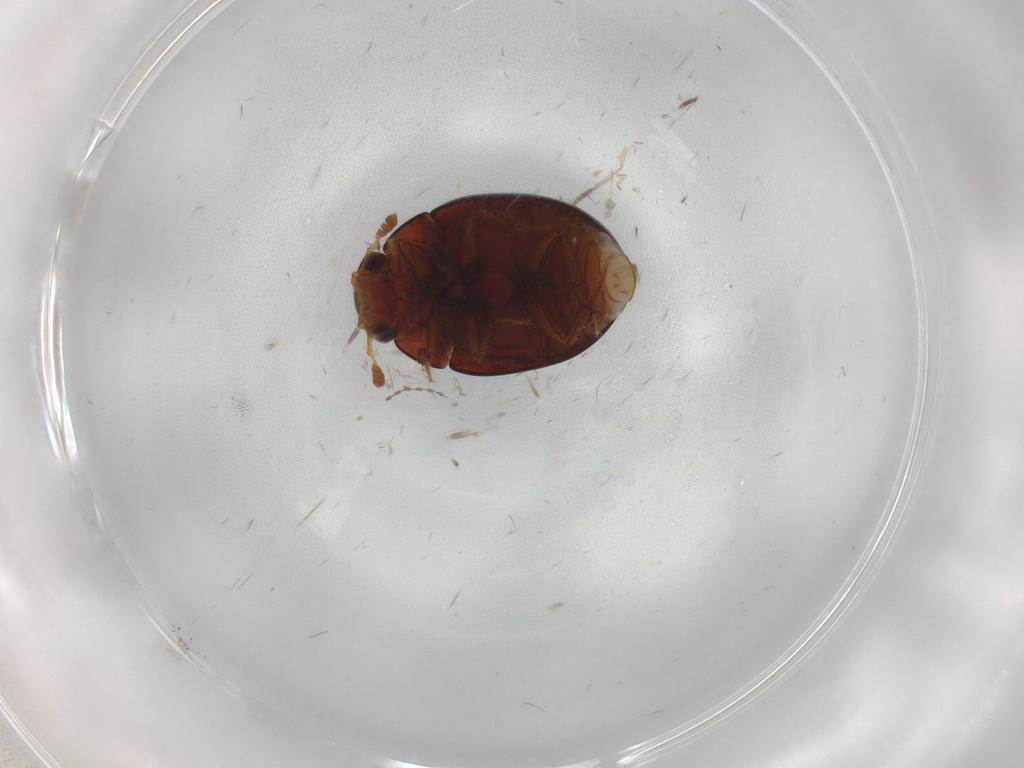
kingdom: Animalia
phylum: Arthropoda
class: Insecta
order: Coleoptera
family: Hydrophilidae
